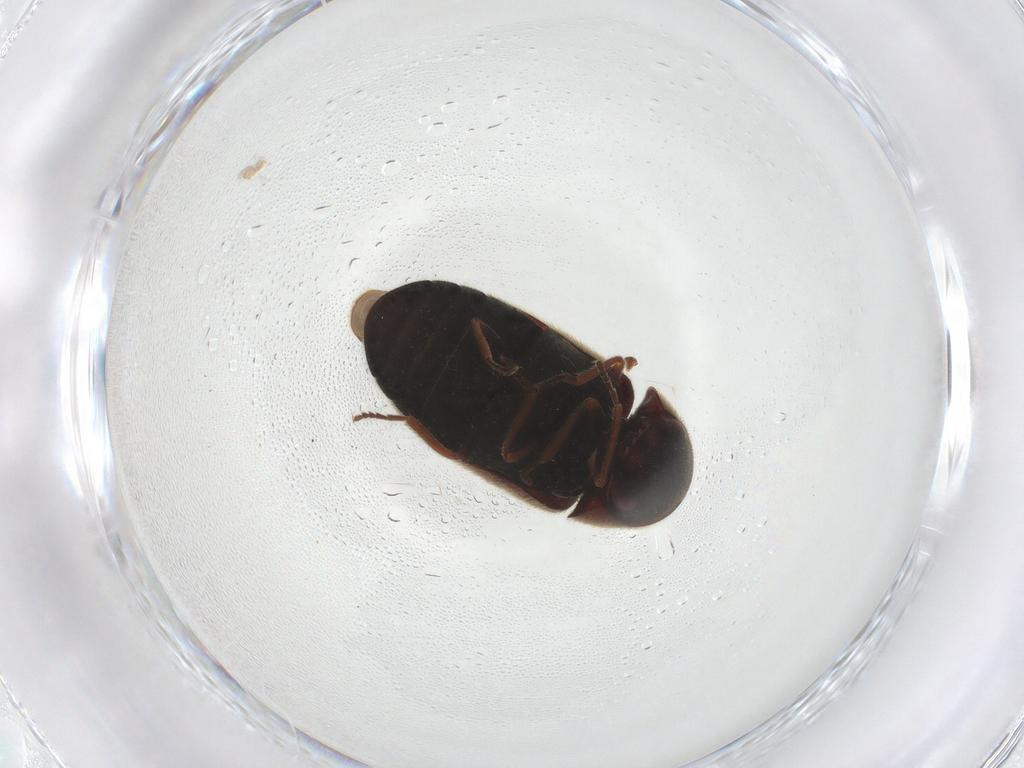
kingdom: Animalia
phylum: Arthropoda
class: Insecta
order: Coleoptera
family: Ptinidae
